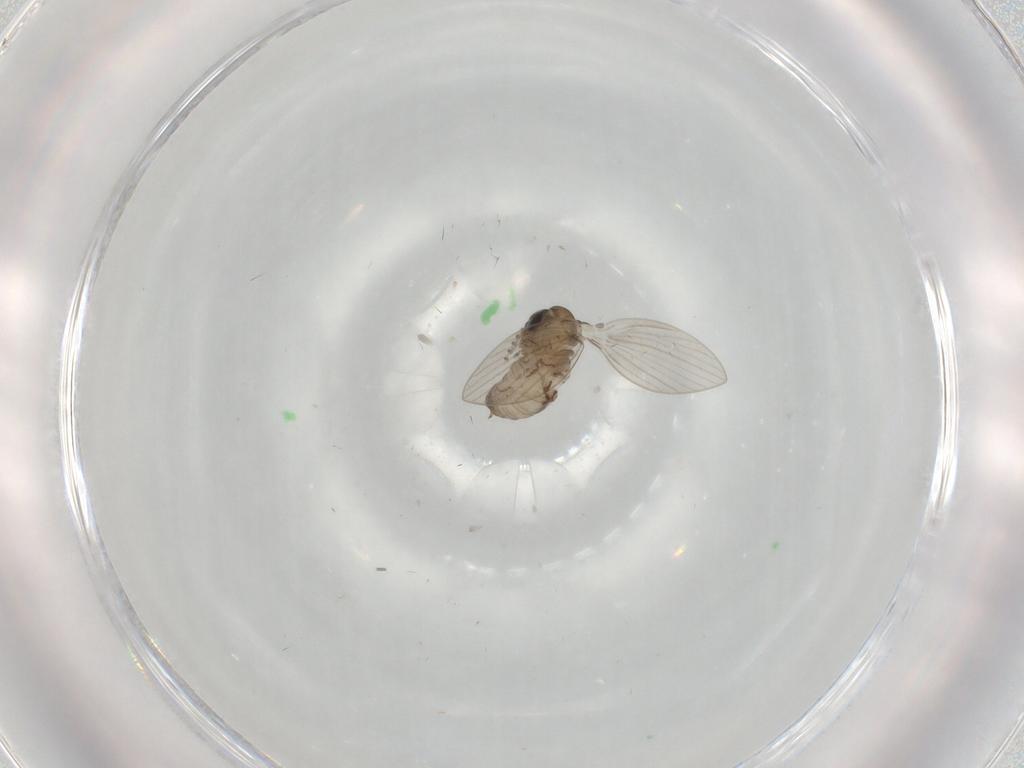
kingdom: Animalia
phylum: Arthropoda
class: Insecta
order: Diptera
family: Psychodidae
